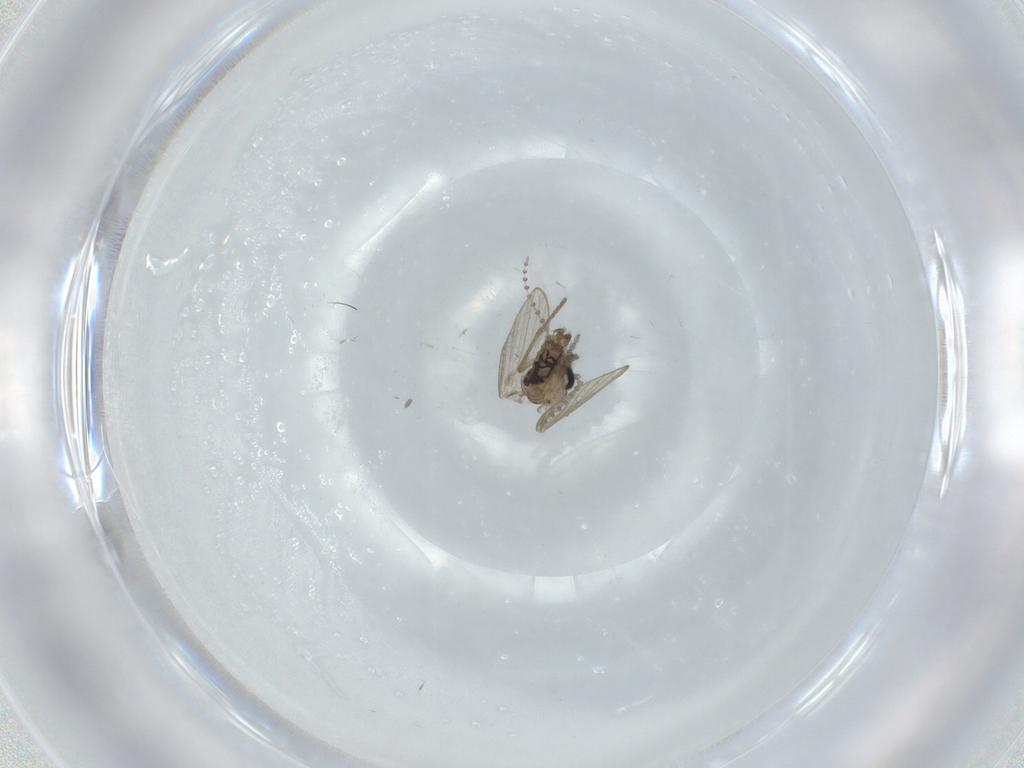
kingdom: Animalia
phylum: Arthropoda
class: Insecta
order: Diptera
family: Psychodidae
